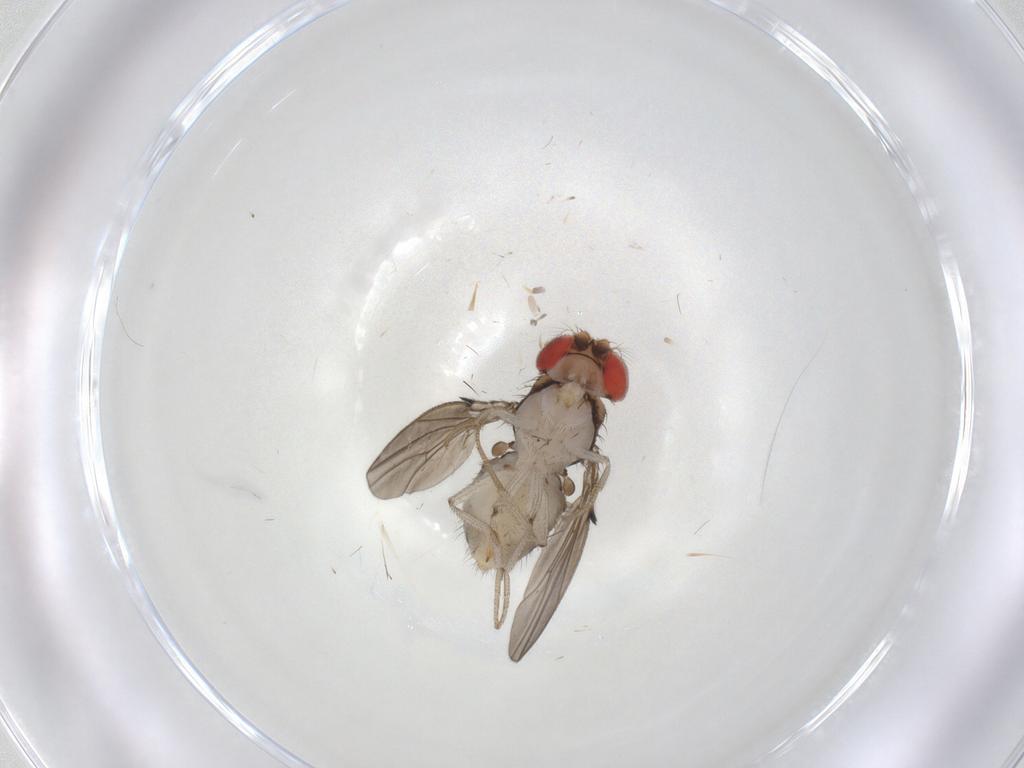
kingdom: Animalia
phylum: Arthropoda
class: Insecta
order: Diptera
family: Drosophilidae
